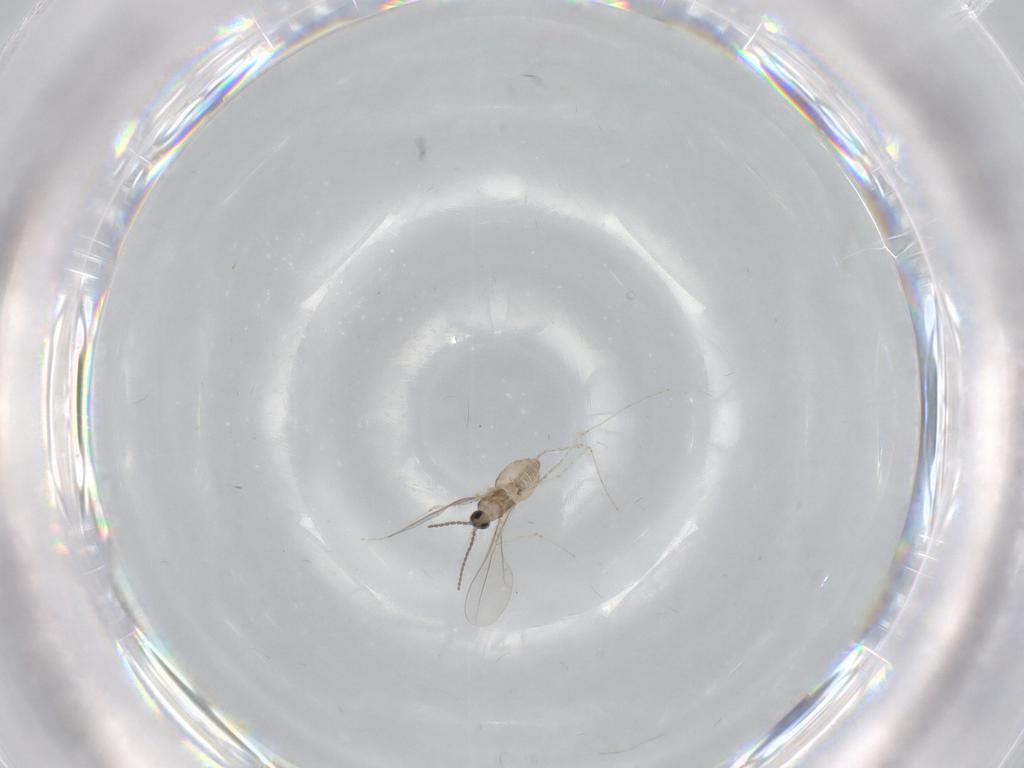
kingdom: Animalia
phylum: Arthropoda
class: Insecta
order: Diptera
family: Cecidomyiidae
